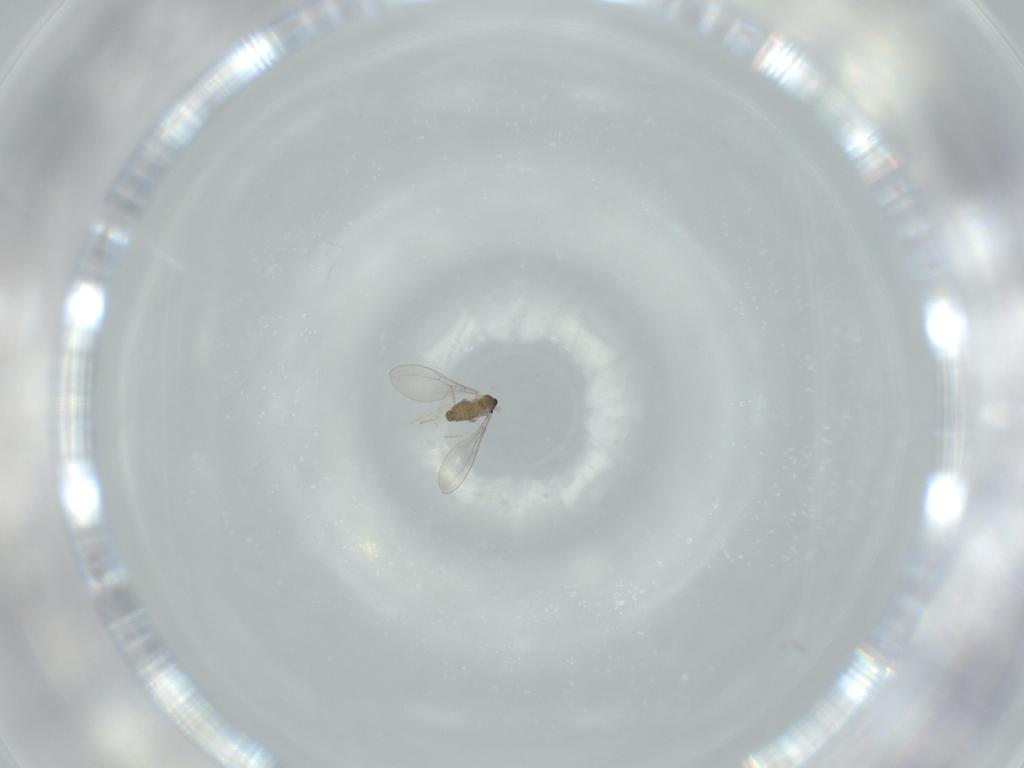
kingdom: Animalia
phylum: Arthropoda
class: Insecta
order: Diptera
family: Cecidomyiidae
